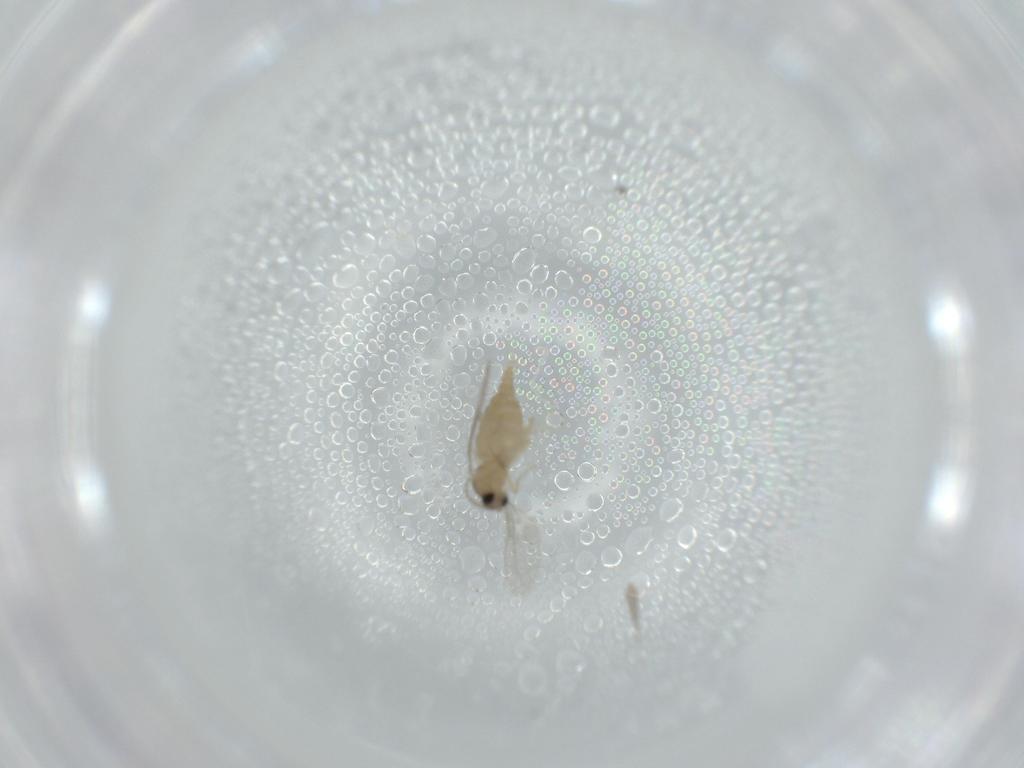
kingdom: Animalia
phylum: Arthropoda
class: Insecta
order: Diptera
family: Cecidomyiidae
